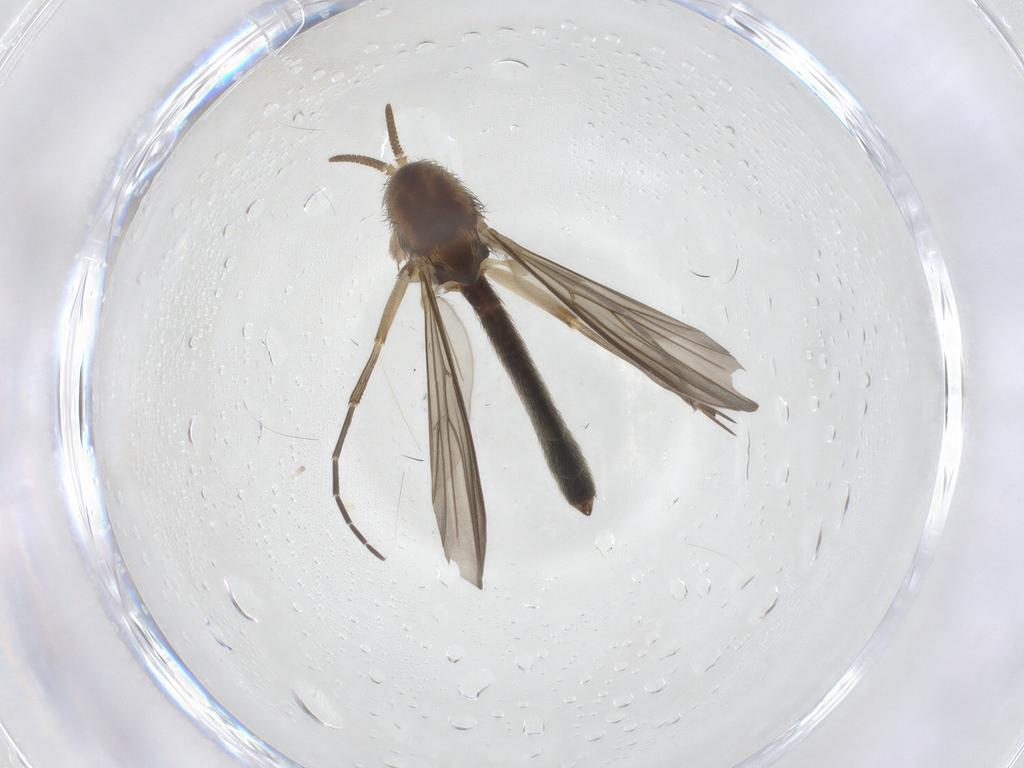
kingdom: Animalia
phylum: Arthropoda
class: Insecta
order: Diptera
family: Mycetophilidae
